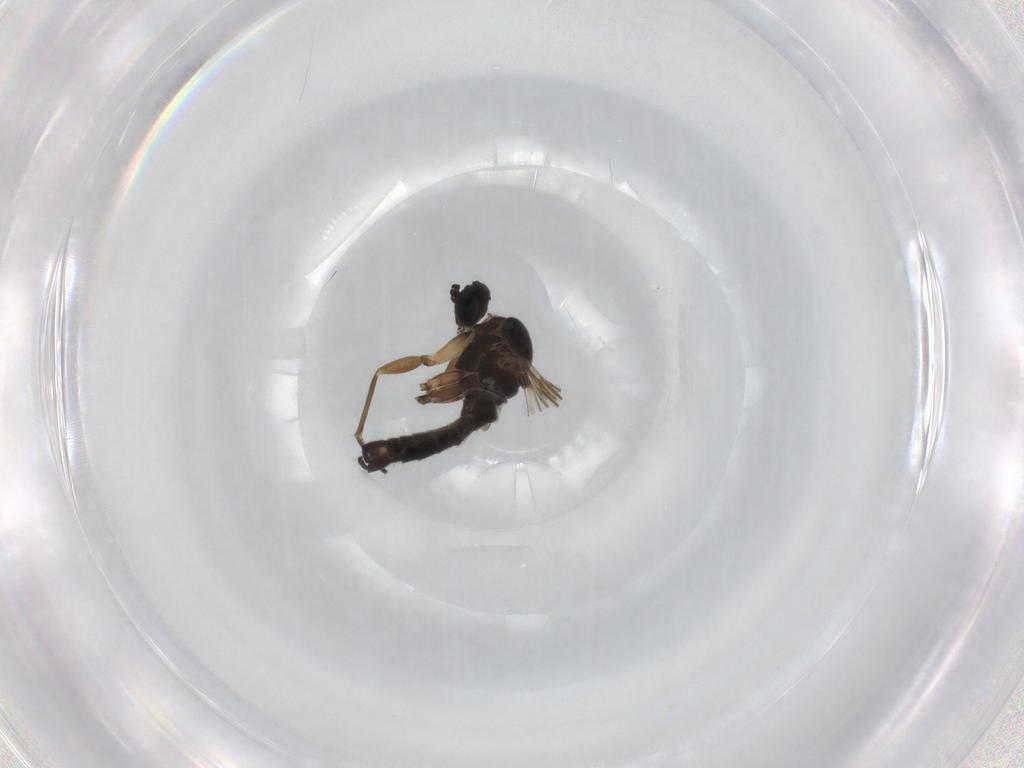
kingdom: Animalia
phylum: Arthropoda
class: Insecta
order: Diptera
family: Sciaridae
